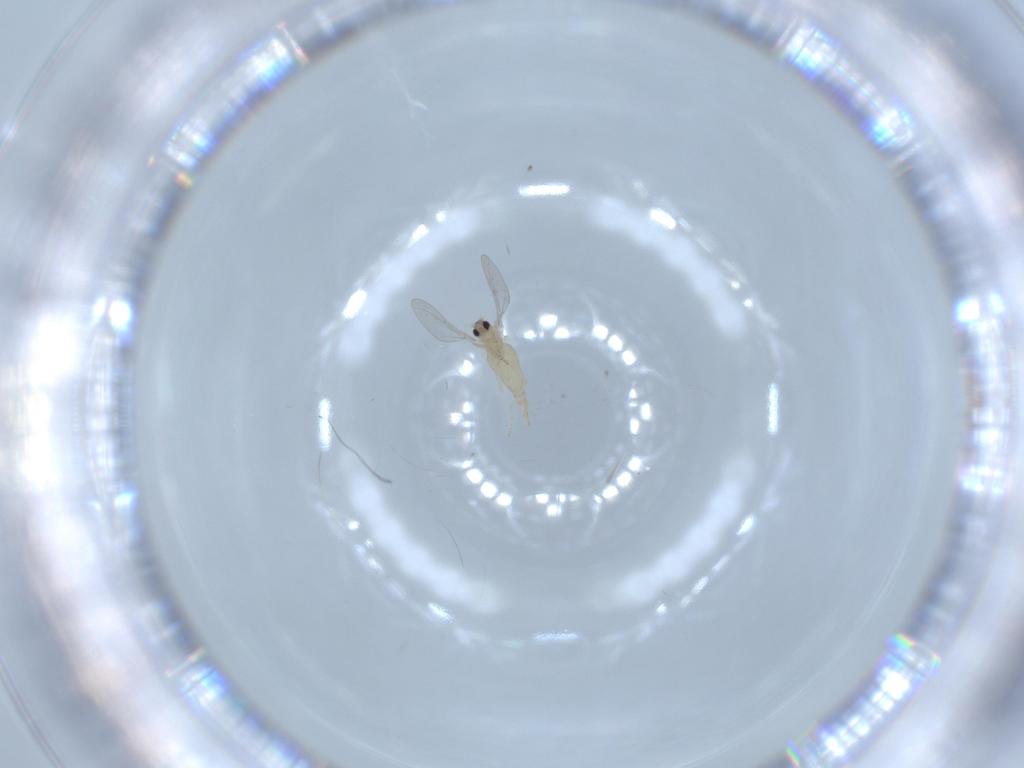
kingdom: Animalia
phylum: Arthropoda
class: Insecta
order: Diptera
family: Cecidomyiidae
